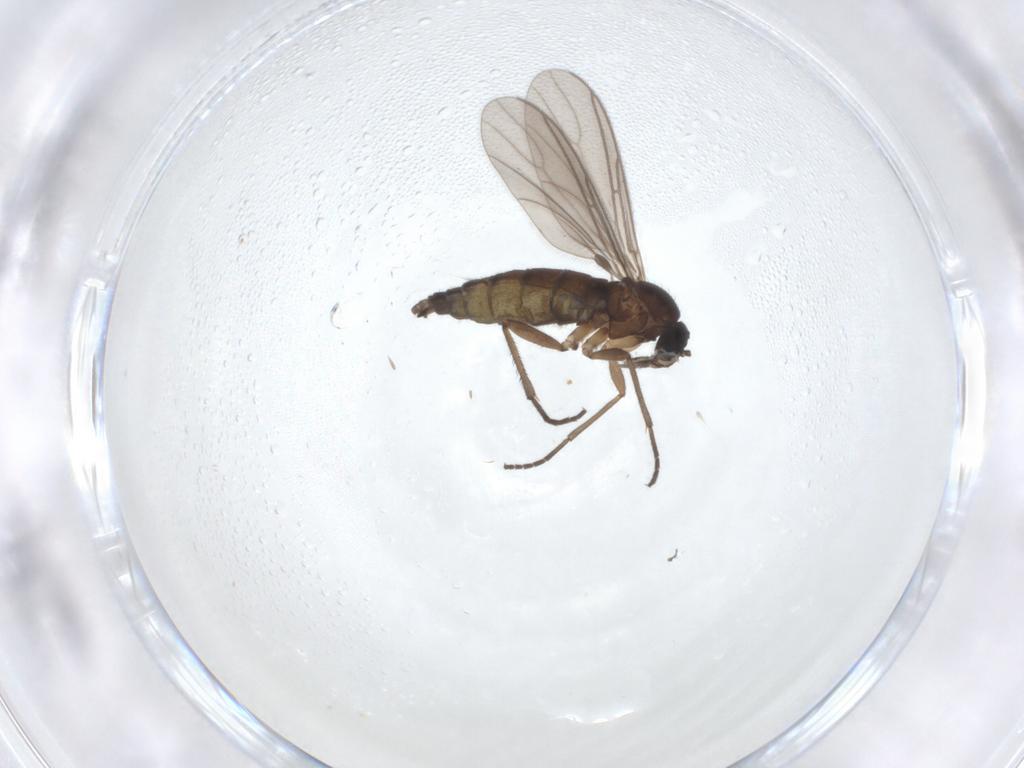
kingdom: Animalia
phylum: Arthropoda
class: Insecta
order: Diptera
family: Sciaridae
